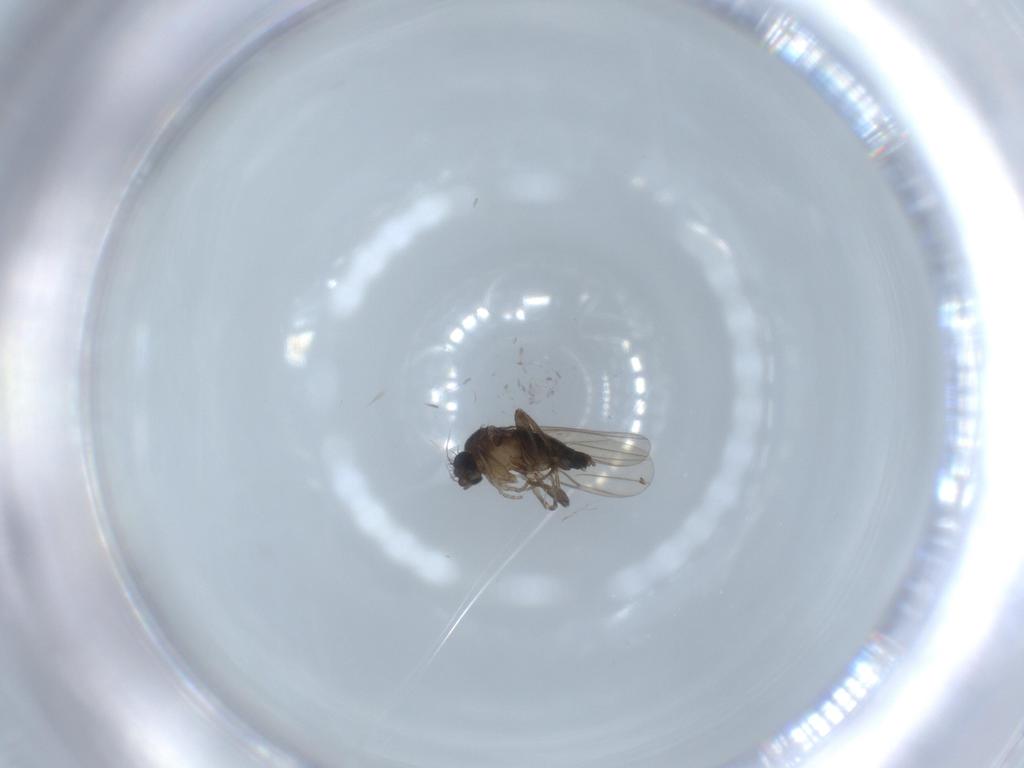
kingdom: Animalia
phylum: Arthropoda
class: Insecta
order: Diptera
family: Phoridae
